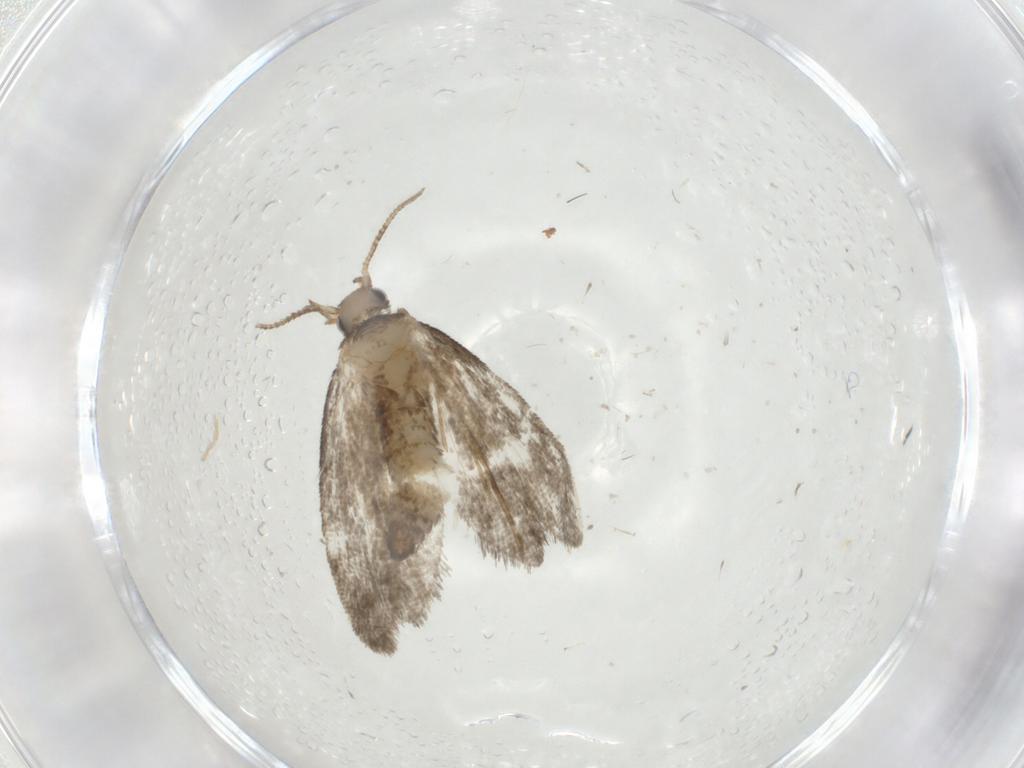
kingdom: Animalia
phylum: Arthropoda
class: Insecta
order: Lepidoptera
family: Psychidae
